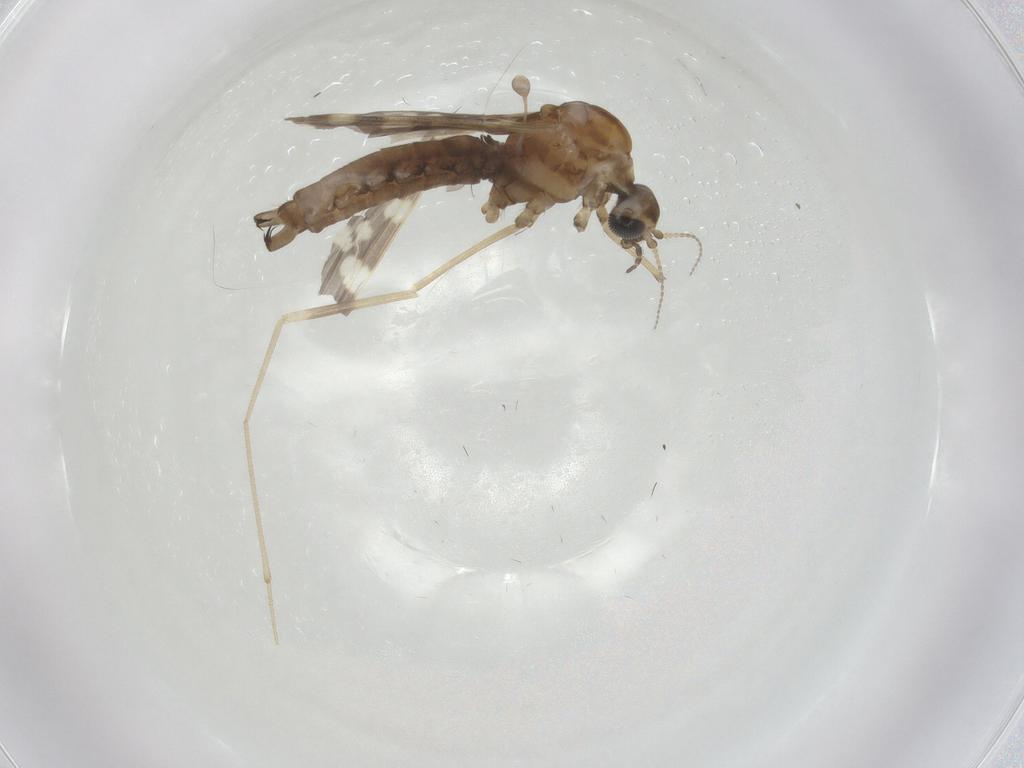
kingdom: Animalia
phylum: Arthropoda
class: Insecta
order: Diptera
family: Limoniidae
